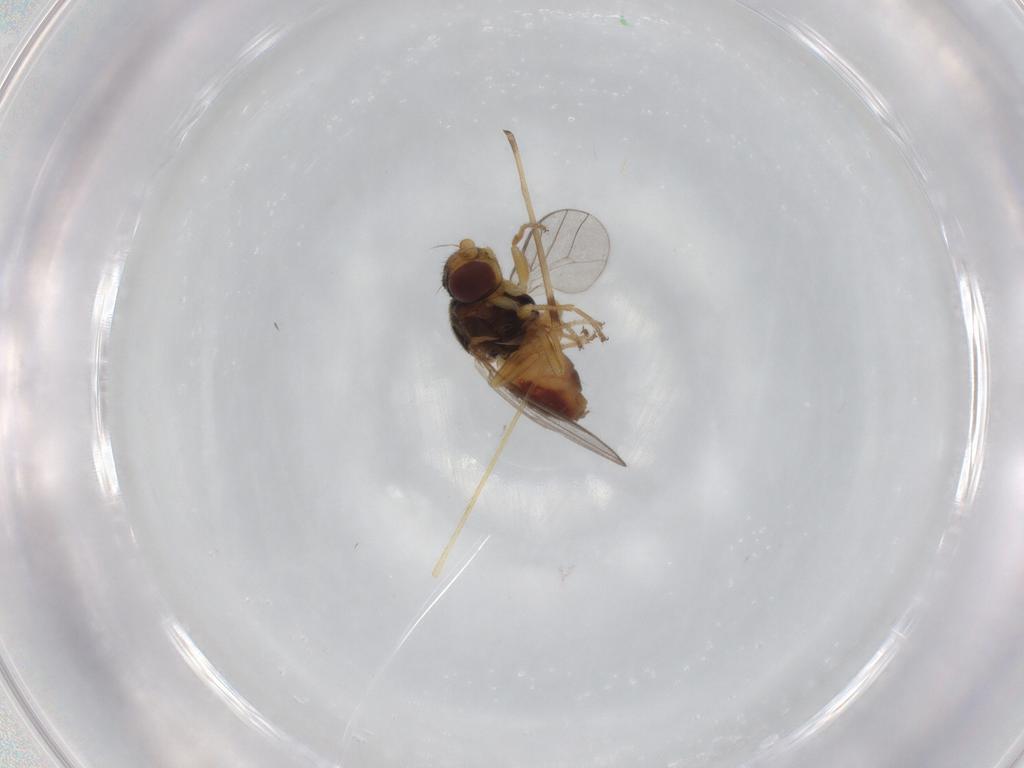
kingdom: Animalia
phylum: Arthropoda
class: Insecta
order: Diptera
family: Chloropidae
